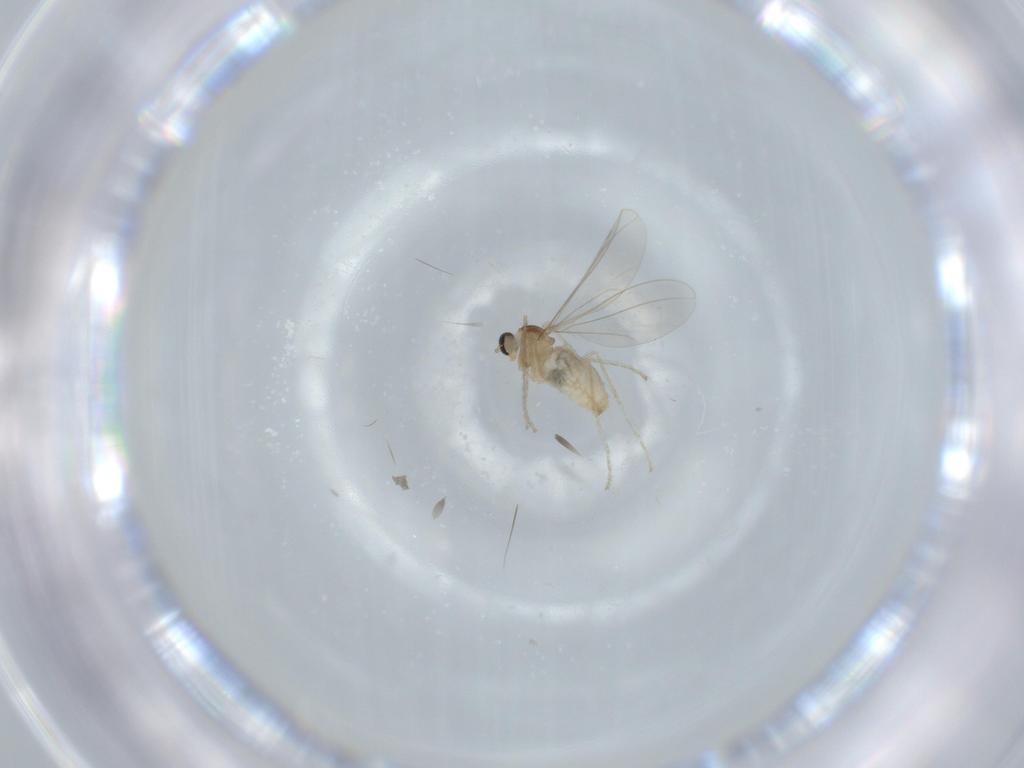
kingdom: Animalia
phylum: Arthropoda
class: Insecta
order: Diptera
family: Cecidomyiidae
